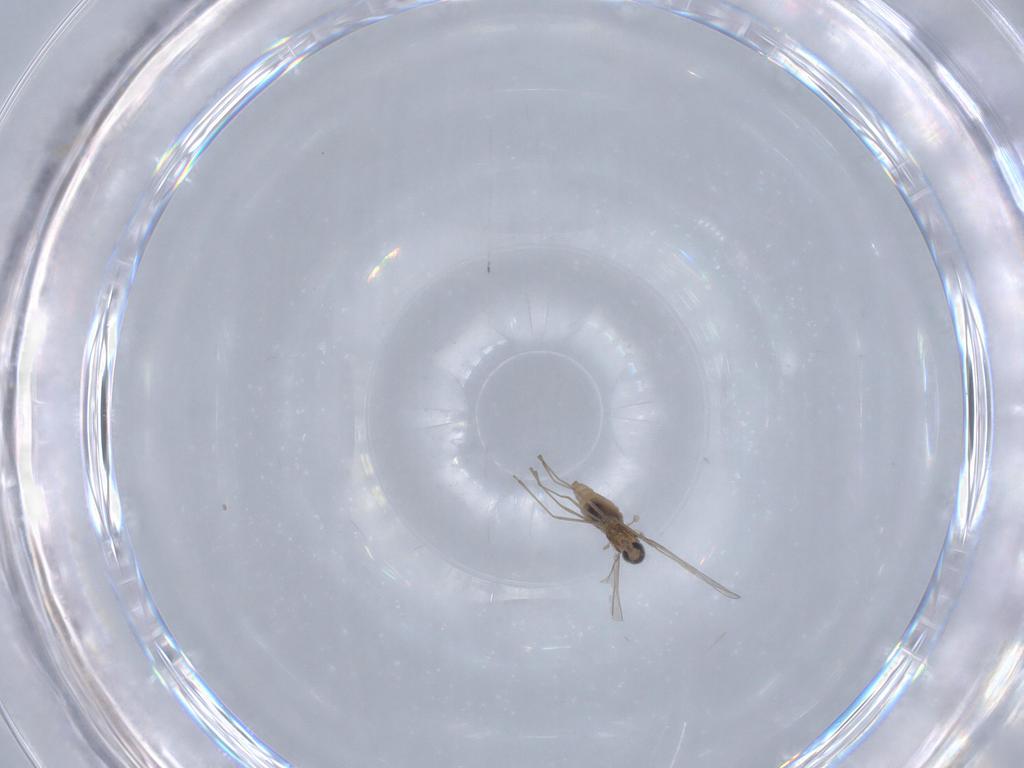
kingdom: Animalia
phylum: Arthropoda
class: Insecta
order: Diptera
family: Cecidomyiidae
